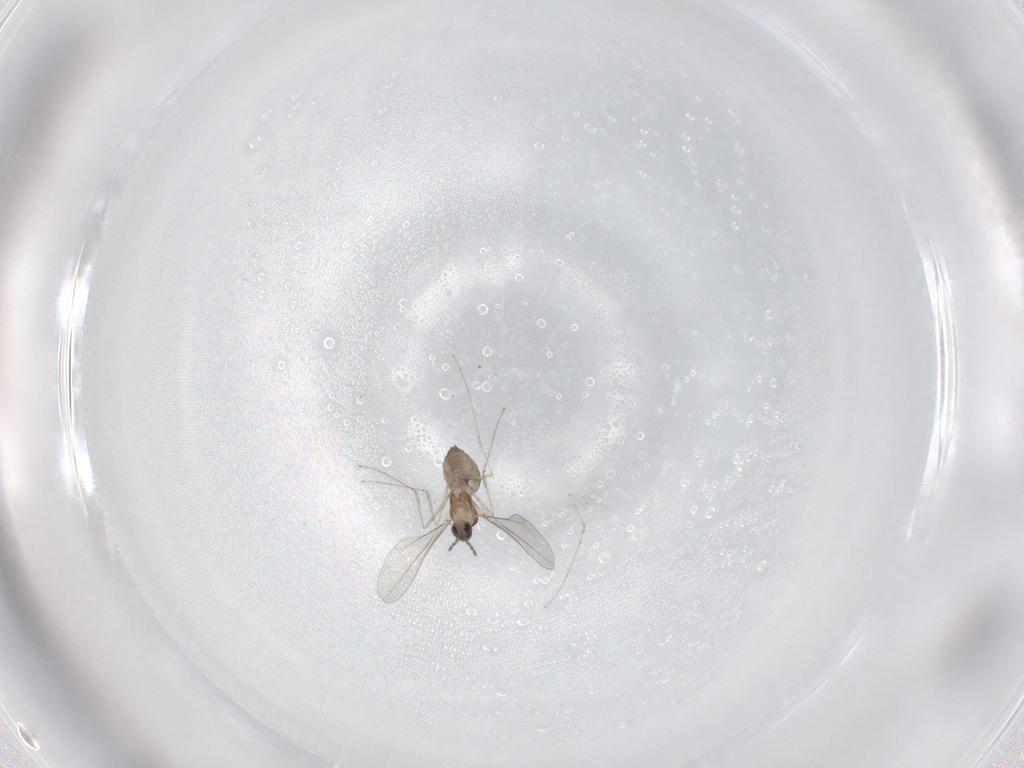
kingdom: Animalia
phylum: Arthropoda
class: Insecta
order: Diptera
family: Cecidomyiidae
